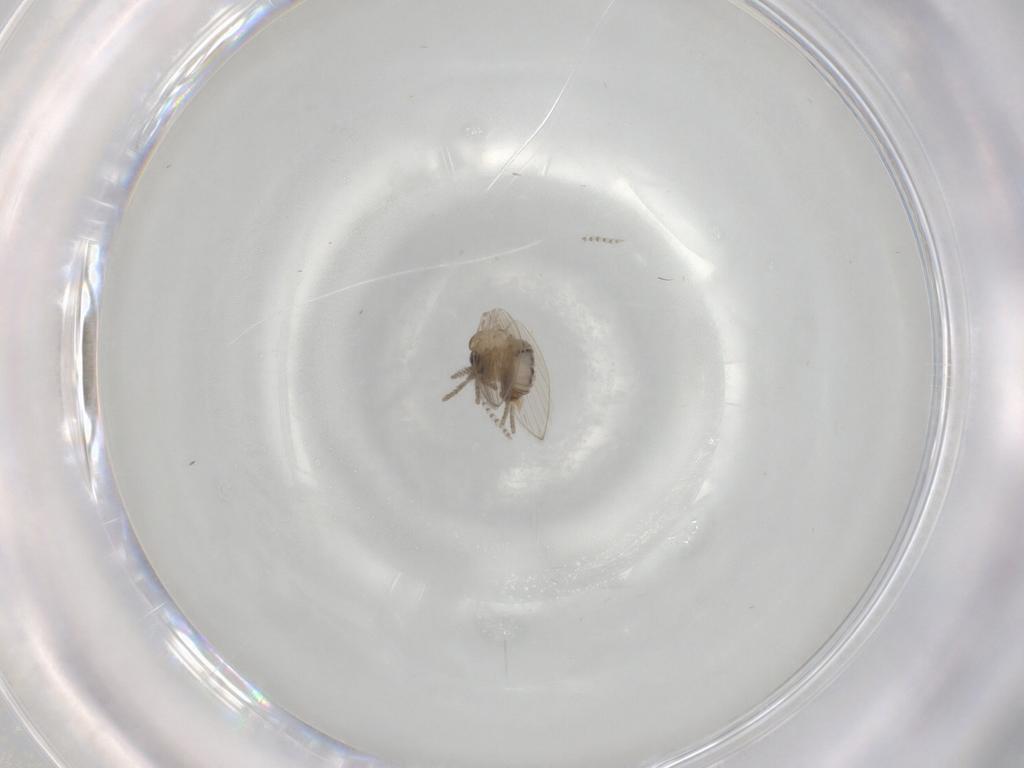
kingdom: Animalia
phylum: Arthropoda
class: Insecta
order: Diptera
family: Psychodidae
